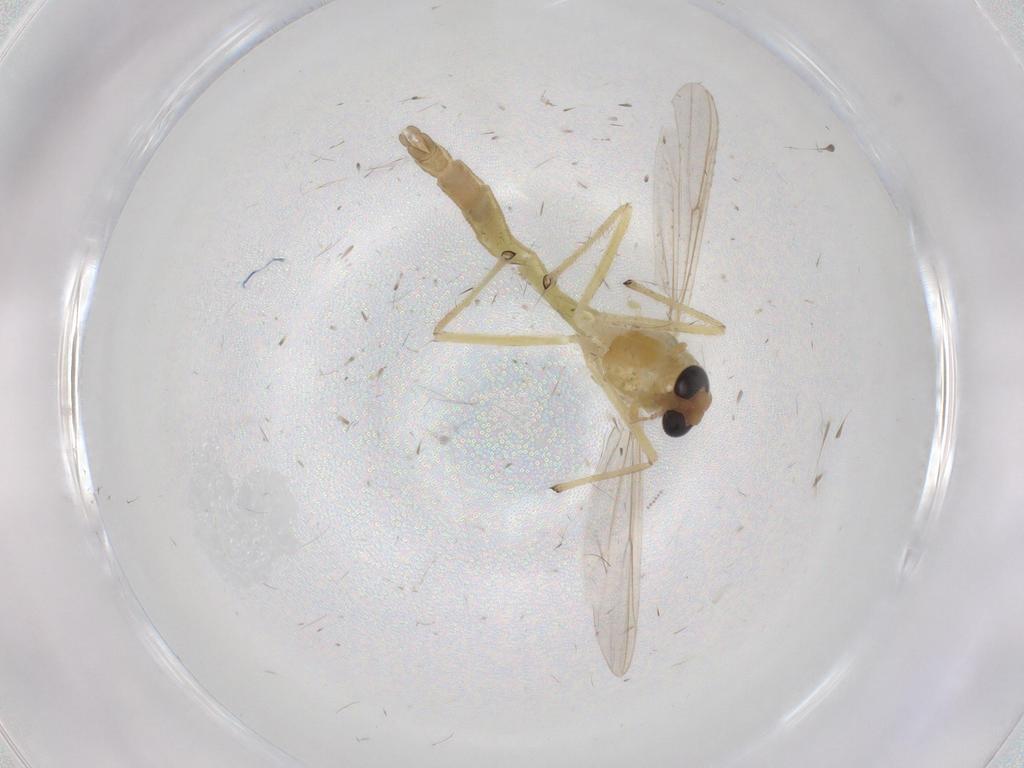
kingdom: Animalia
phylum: Arthropoda
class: Insecta
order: Diptera
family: Chironomidae
